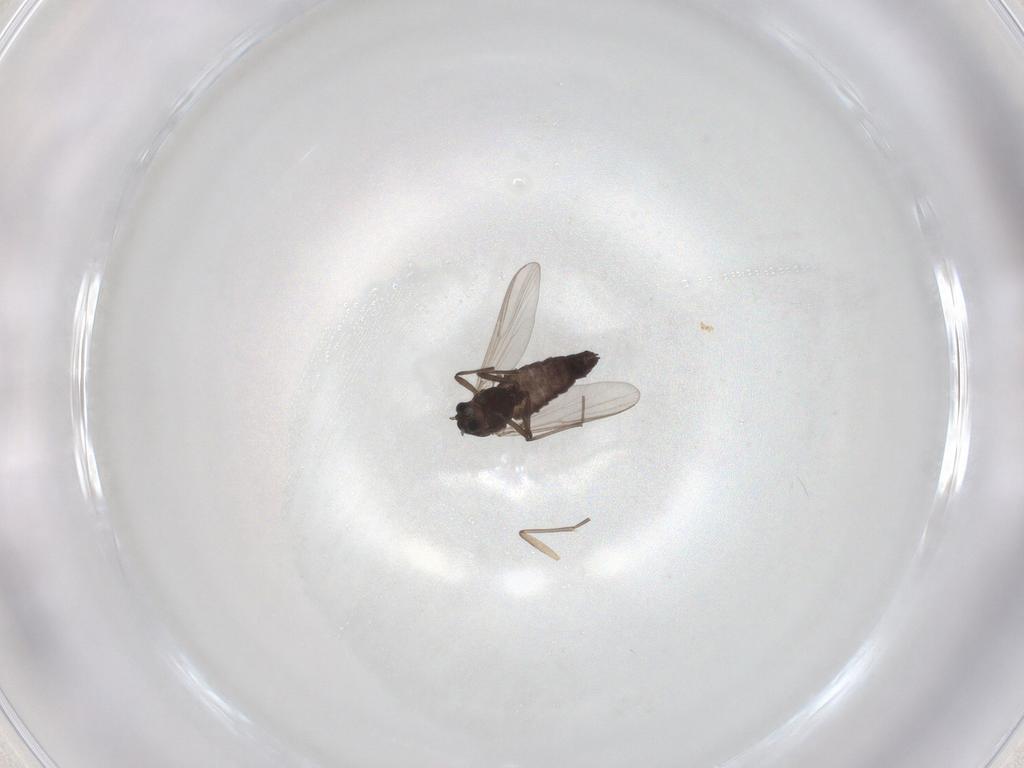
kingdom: Animalia
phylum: Arthropoda
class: Insecta
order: Diptera
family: Chironomidae
